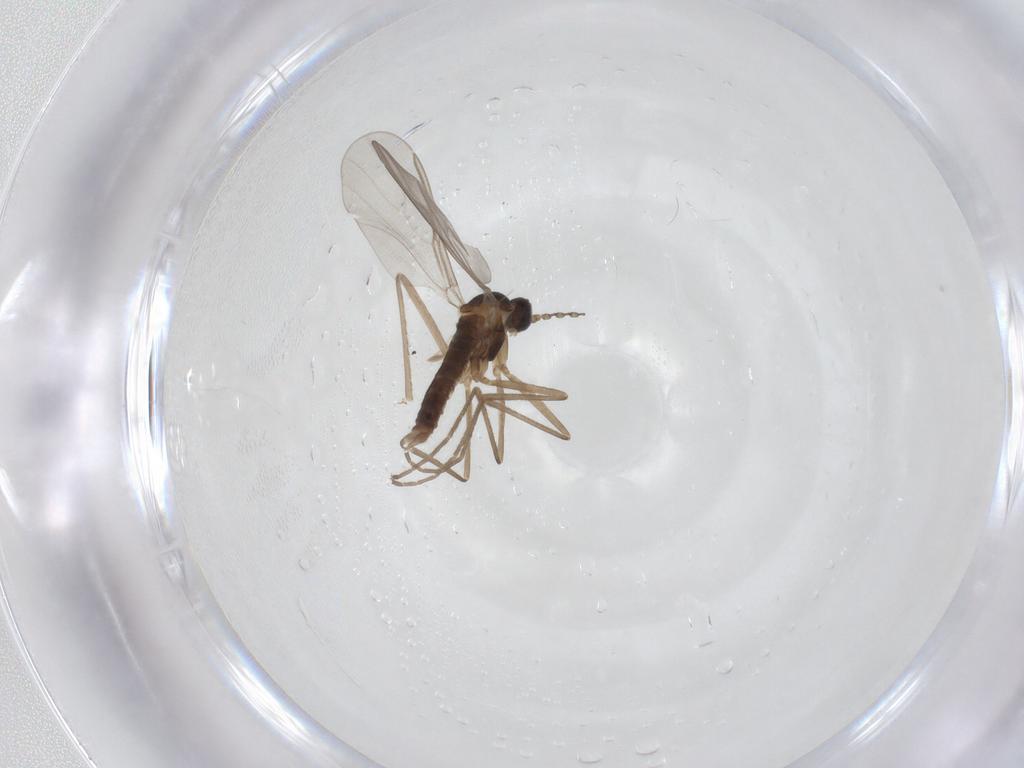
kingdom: Animalia
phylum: Arthropoda
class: Insecta
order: Diptera
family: Cecidomyiidae
